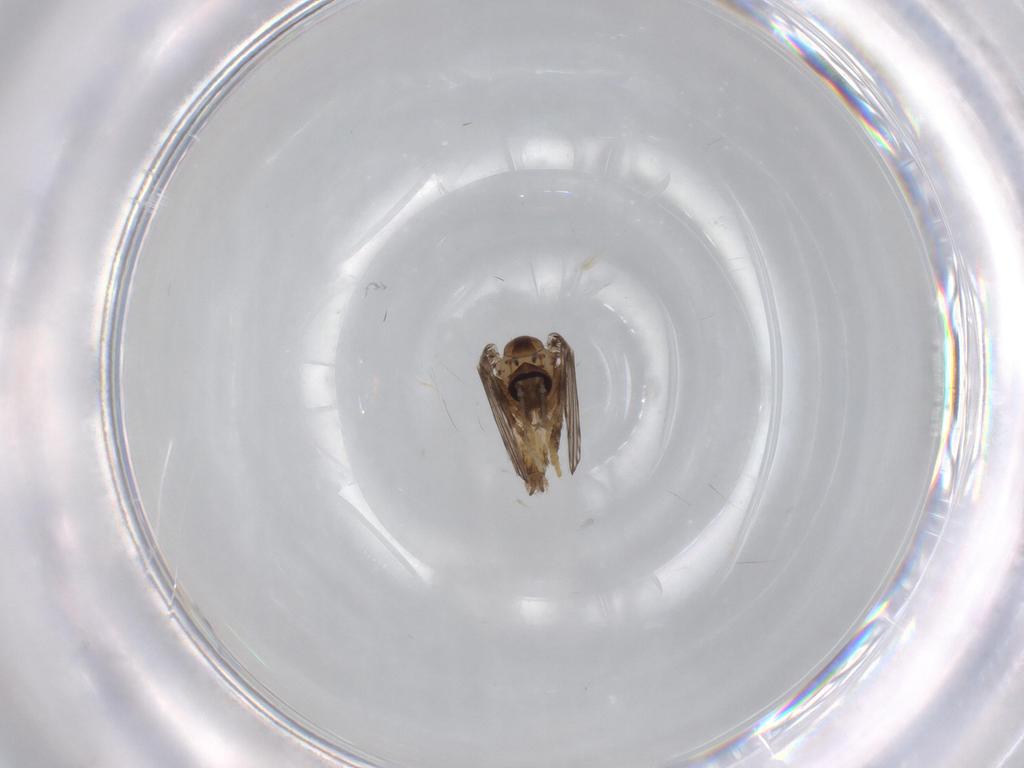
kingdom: Animalia
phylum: Arthropoda
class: Insecta
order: Diptera
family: Psychodidae
